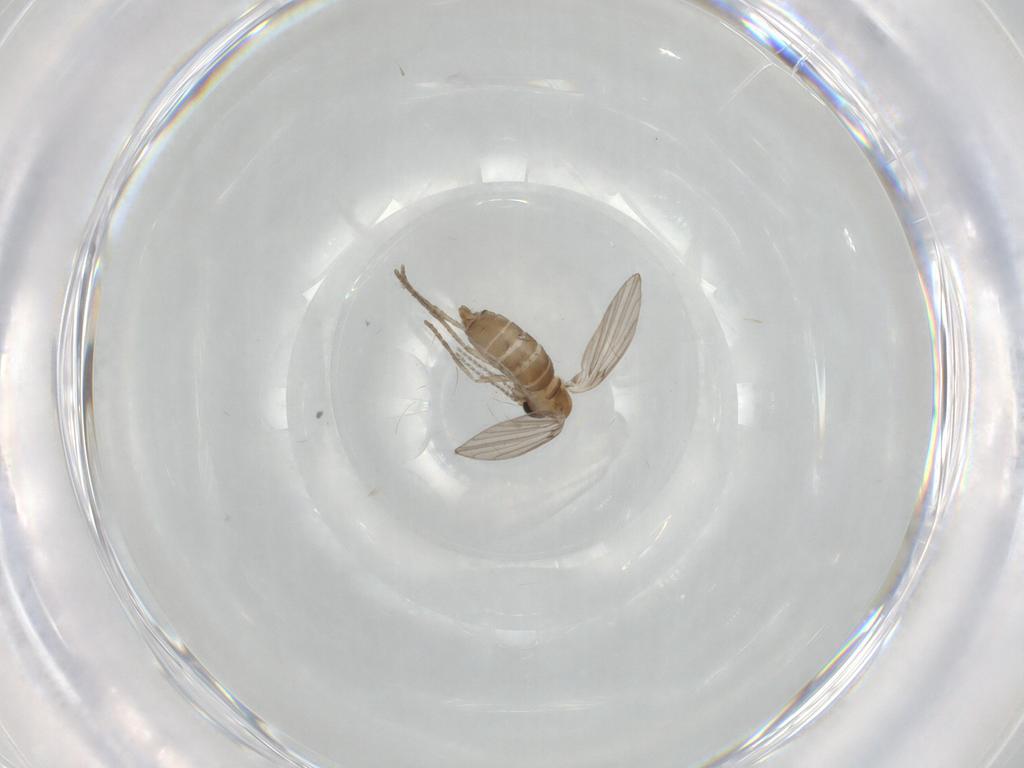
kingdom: Animalia
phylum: Arthropoda
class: Insecta
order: Diptera
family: Psychodidae
